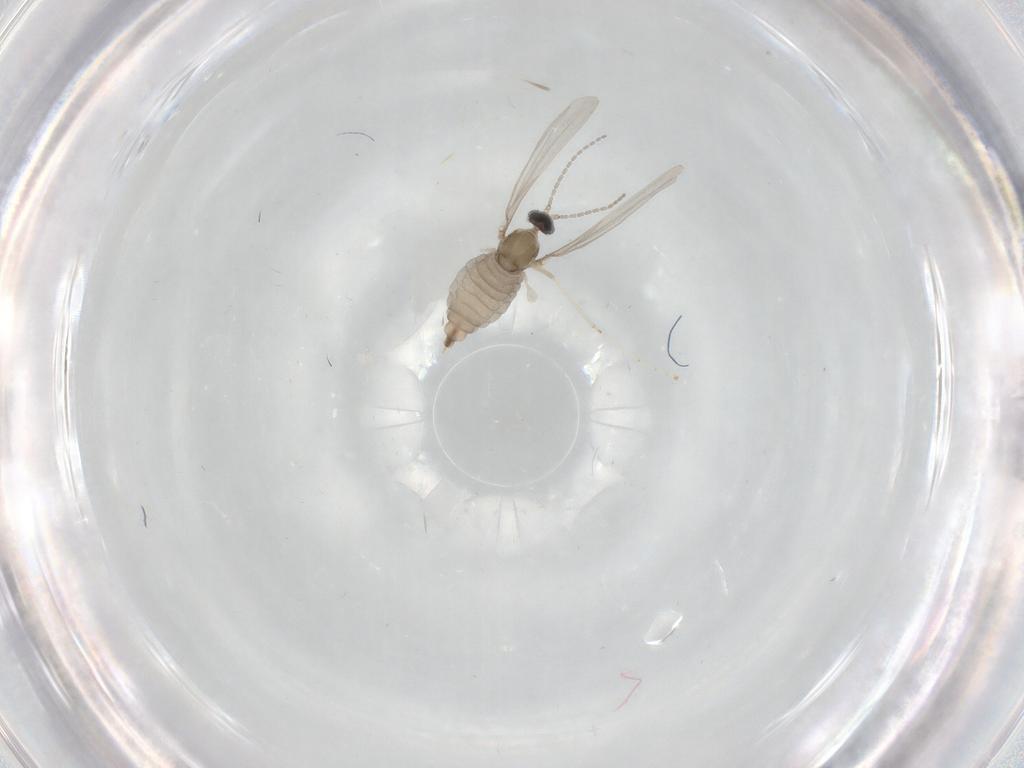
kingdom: Animalia
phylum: Arthropoda
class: Insecta
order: Diptera
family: Cecidomyiidae
